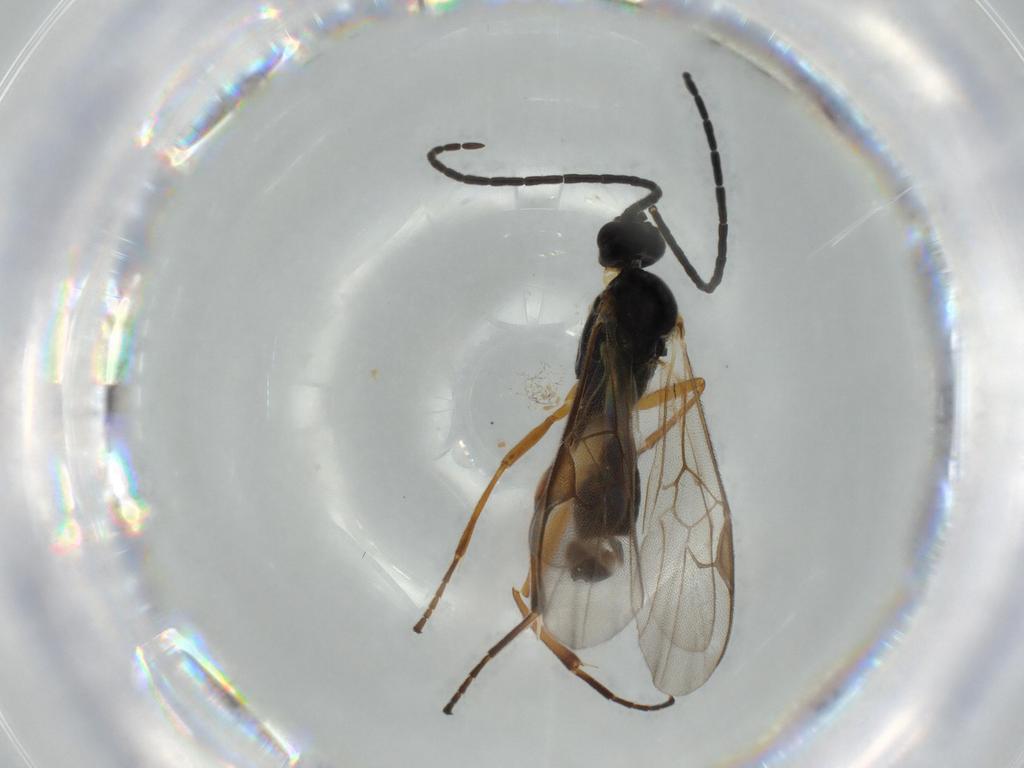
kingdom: Animalia
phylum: Arthropoda
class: Insecta
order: Hymenoptera
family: Braconidae
